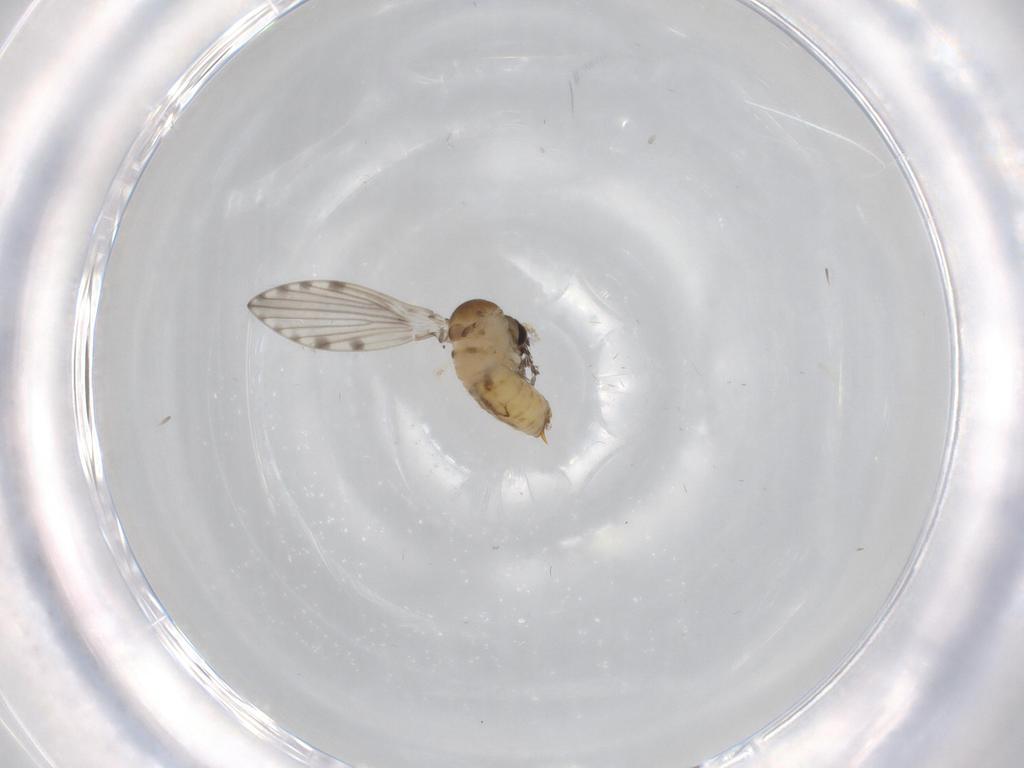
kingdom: Animalia
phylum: Arthropoda
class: Insecta
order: Diptera
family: Psychodidae
